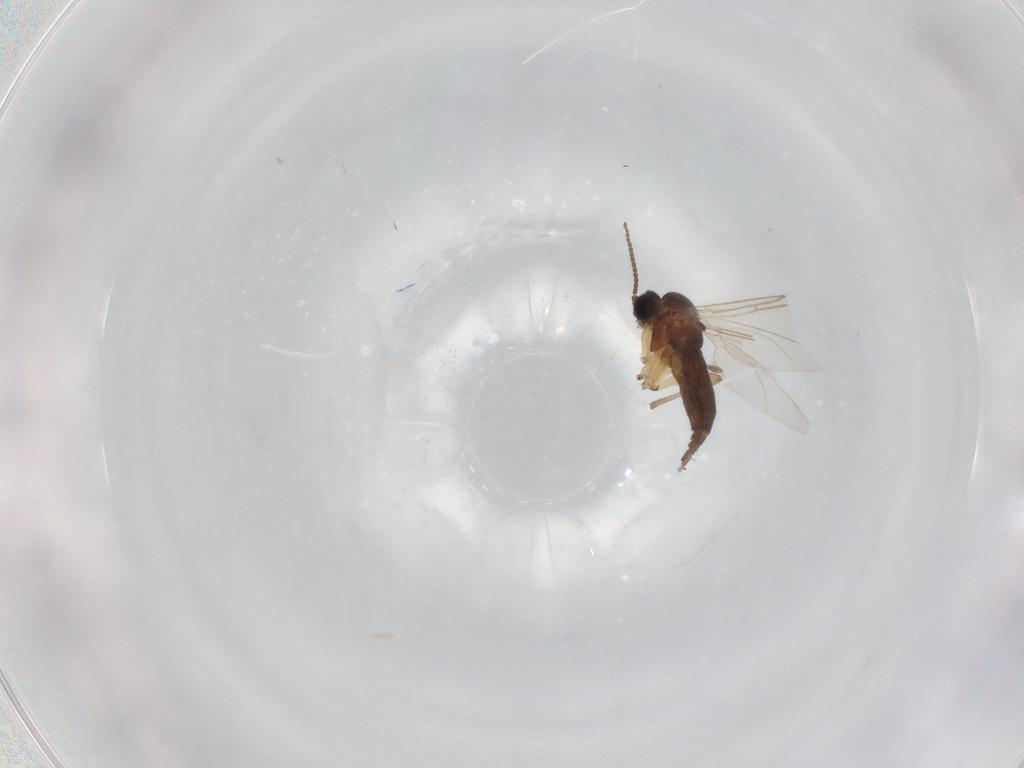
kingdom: Animalia
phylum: Arthropoda
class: Insecta
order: Diptera
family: Sciaridae
